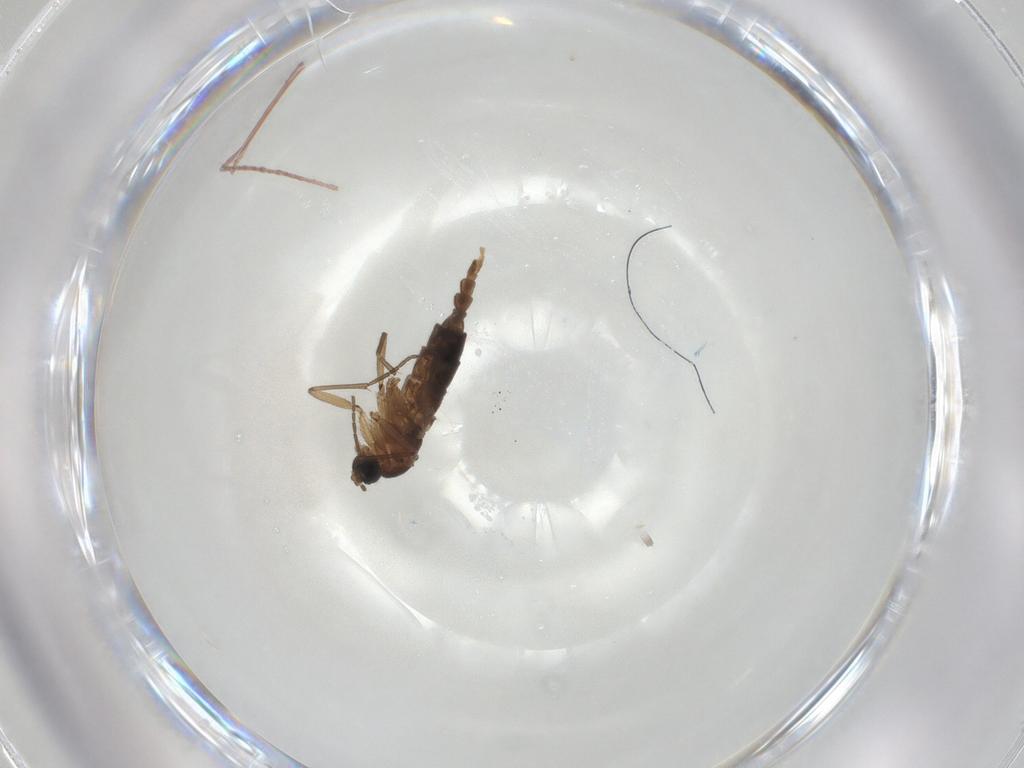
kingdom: Animalia
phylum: Arthropoda
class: Insecta
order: Diptera
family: Sciaridae
